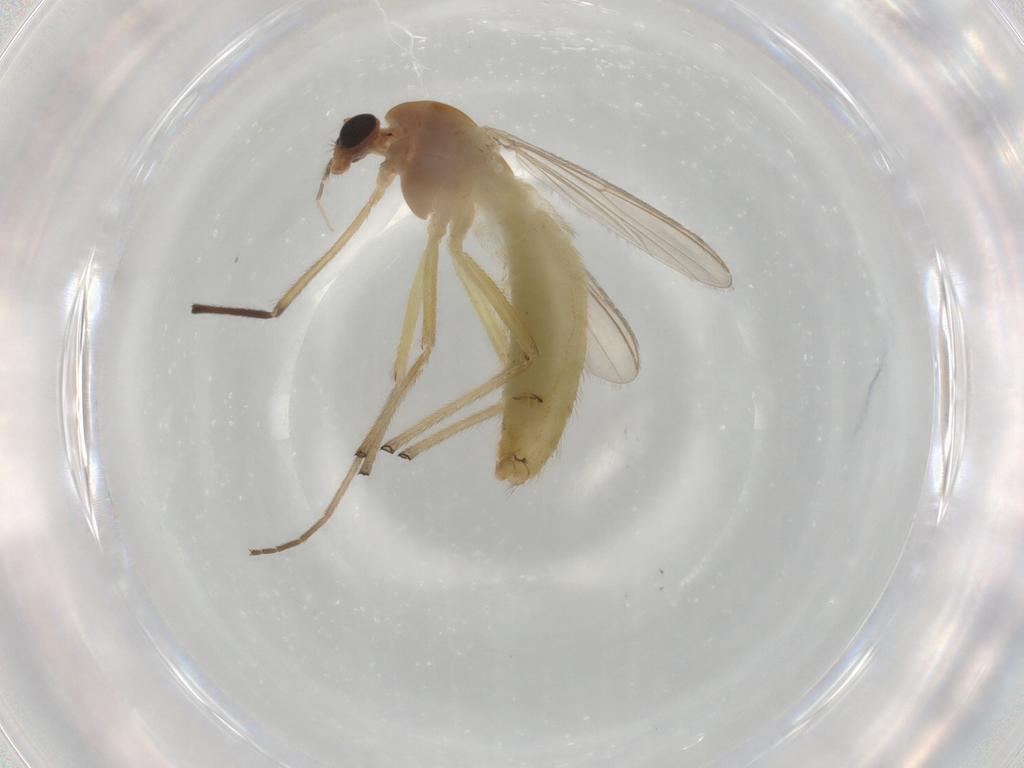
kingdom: Animalia
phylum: Arthropoda
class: Insecta
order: Diptera
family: Chironomidae
